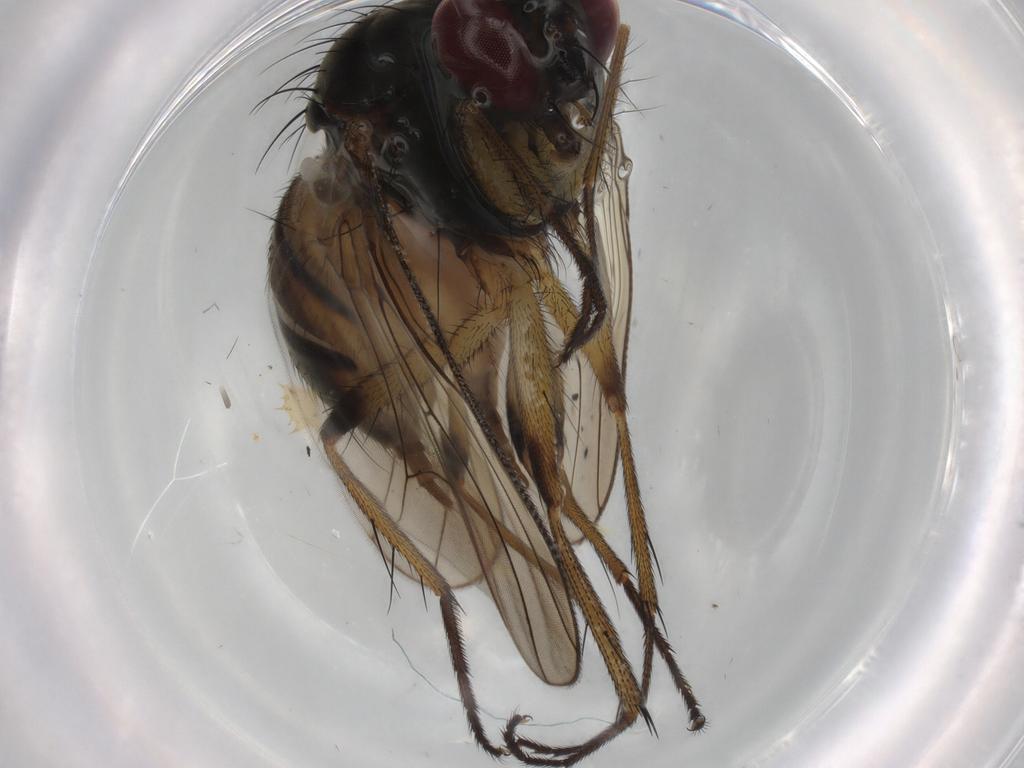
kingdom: Animalia
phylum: Arthropoda
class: Insecta
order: Diptera
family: Muscidae
